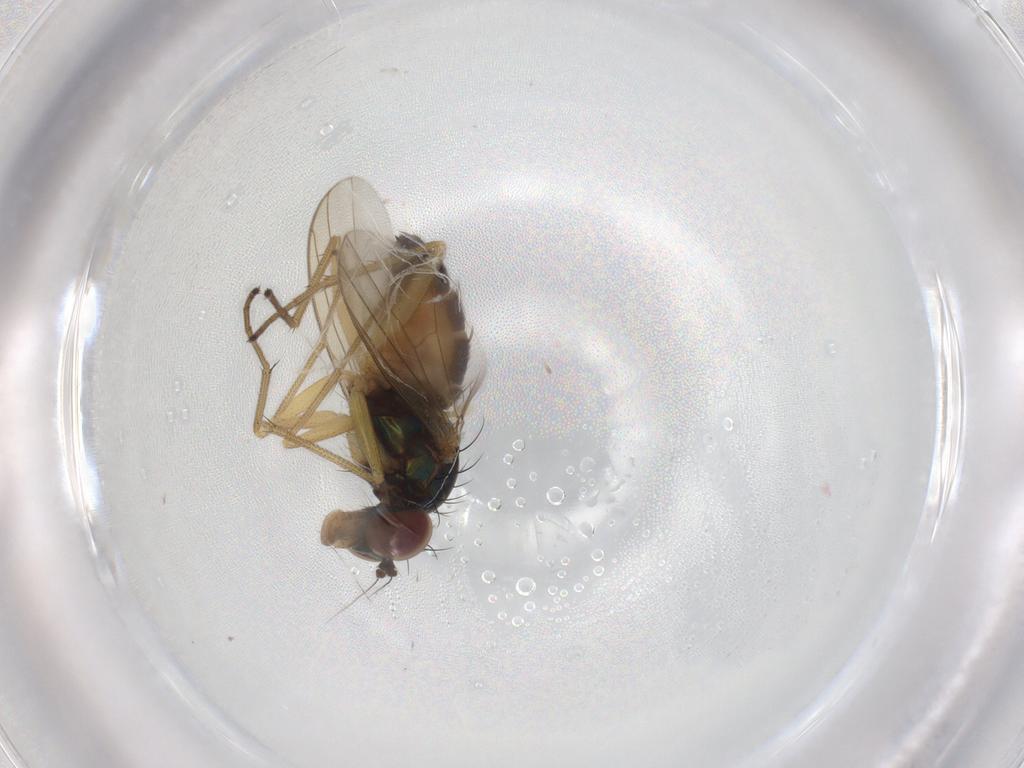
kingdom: Animalia
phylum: Arthropoda
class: Insecta
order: Diptera
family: Dolichopodidae
